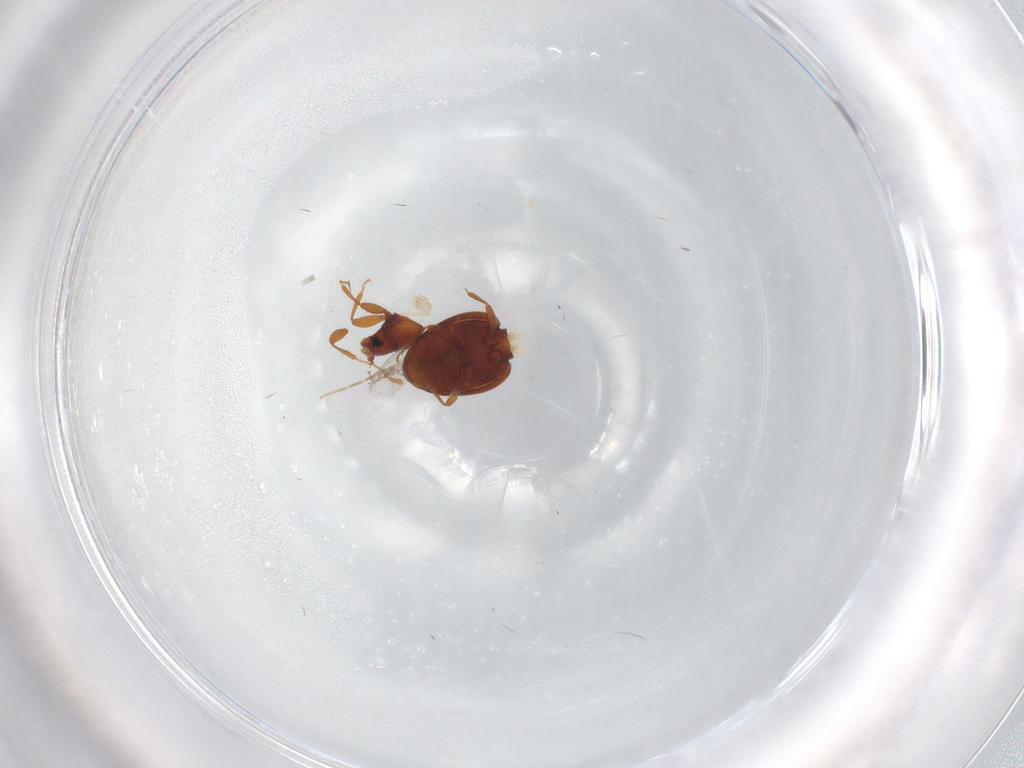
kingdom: Animalia
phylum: Arthropoda
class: Insecta
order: Coleoptera
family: Latridiidae
